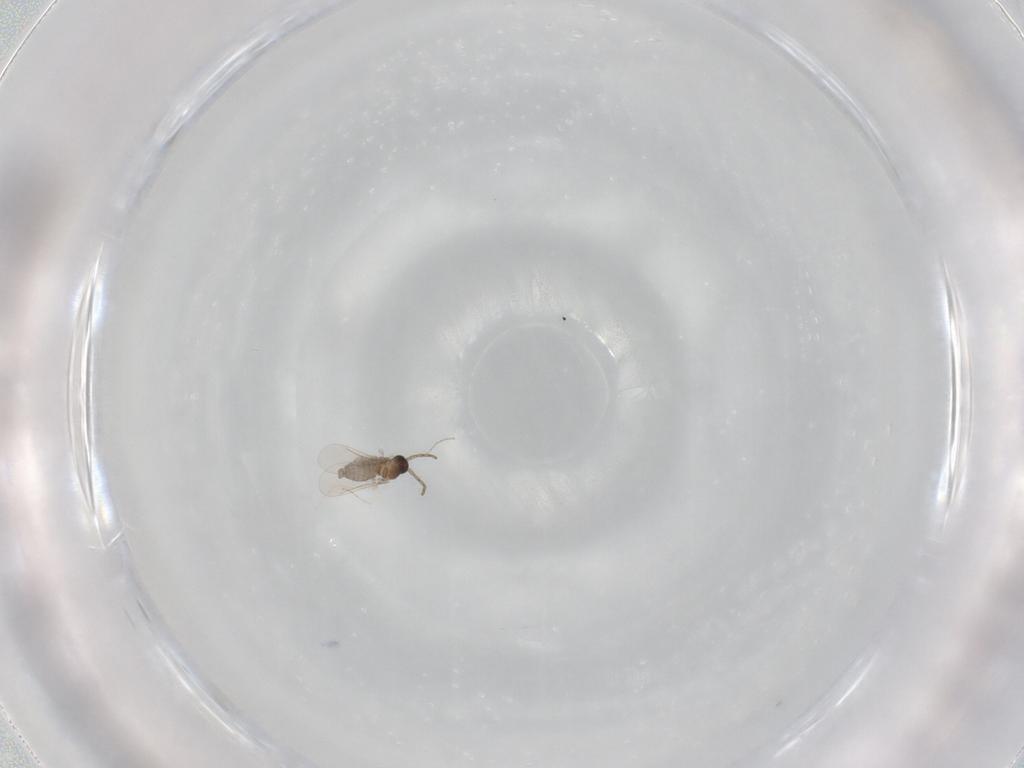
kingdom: Animalia
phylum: Arthropoda
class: Insecta
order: Diptera
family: Cecidomyiidae
